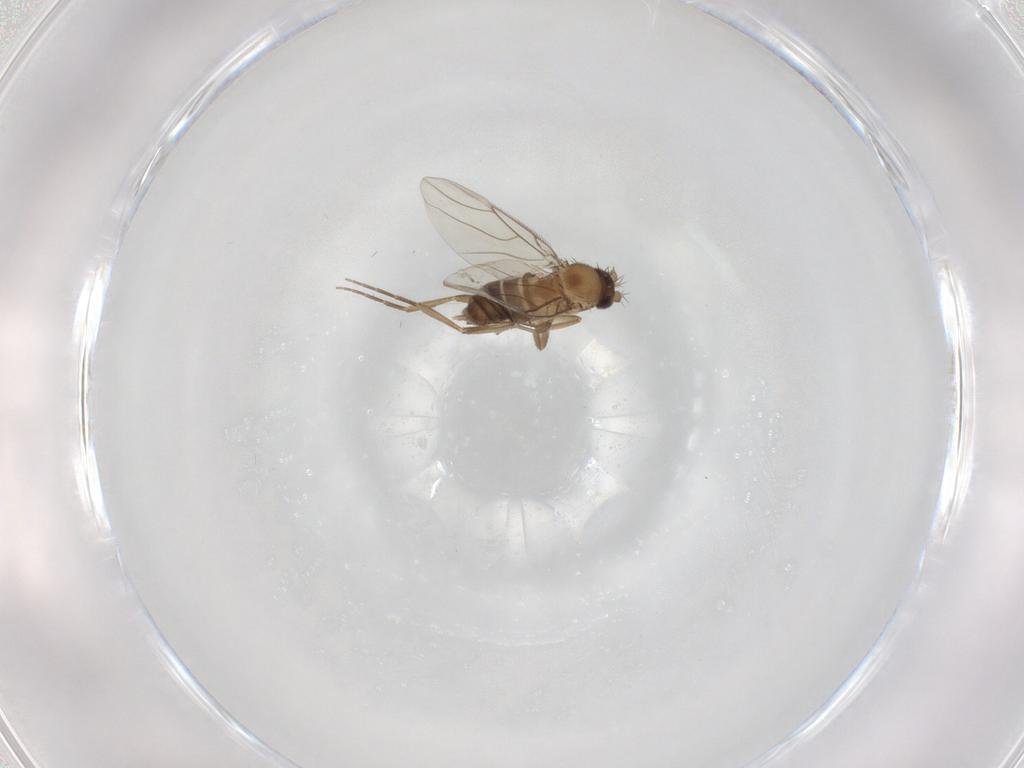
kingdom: Animalia
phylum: Arthropoda
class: Insecta
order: Diptera
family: Phoridae
